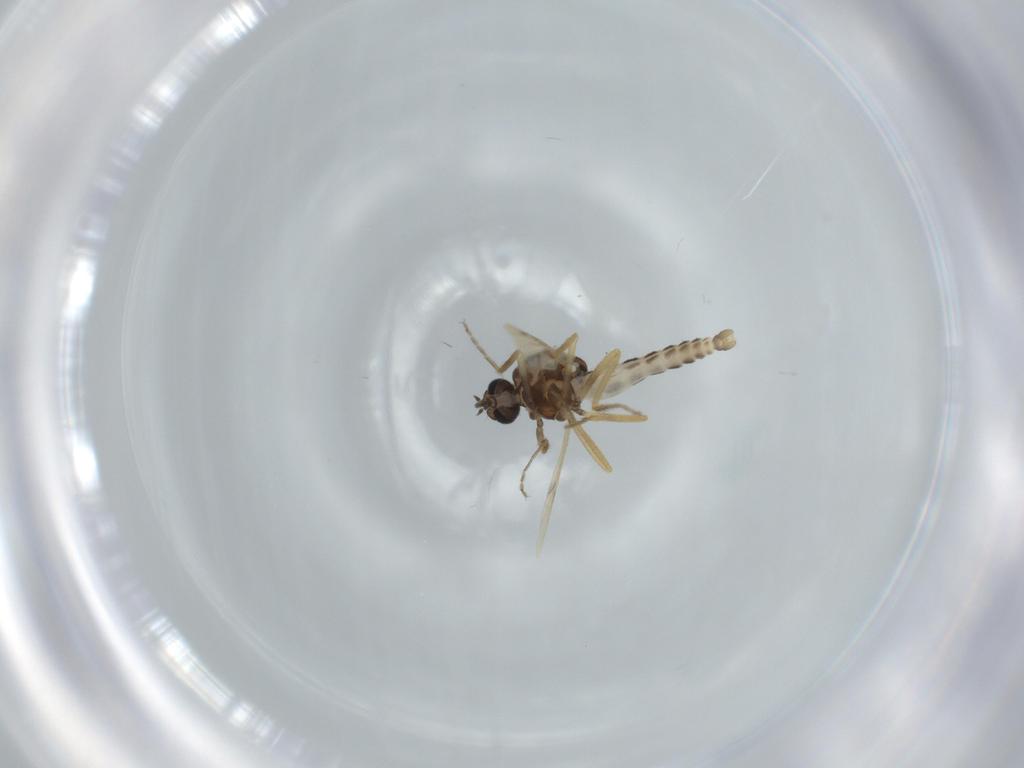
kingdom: Animalia
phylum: Arthropoda
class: Insecta
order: Diptera
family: Ceratopogonidae
